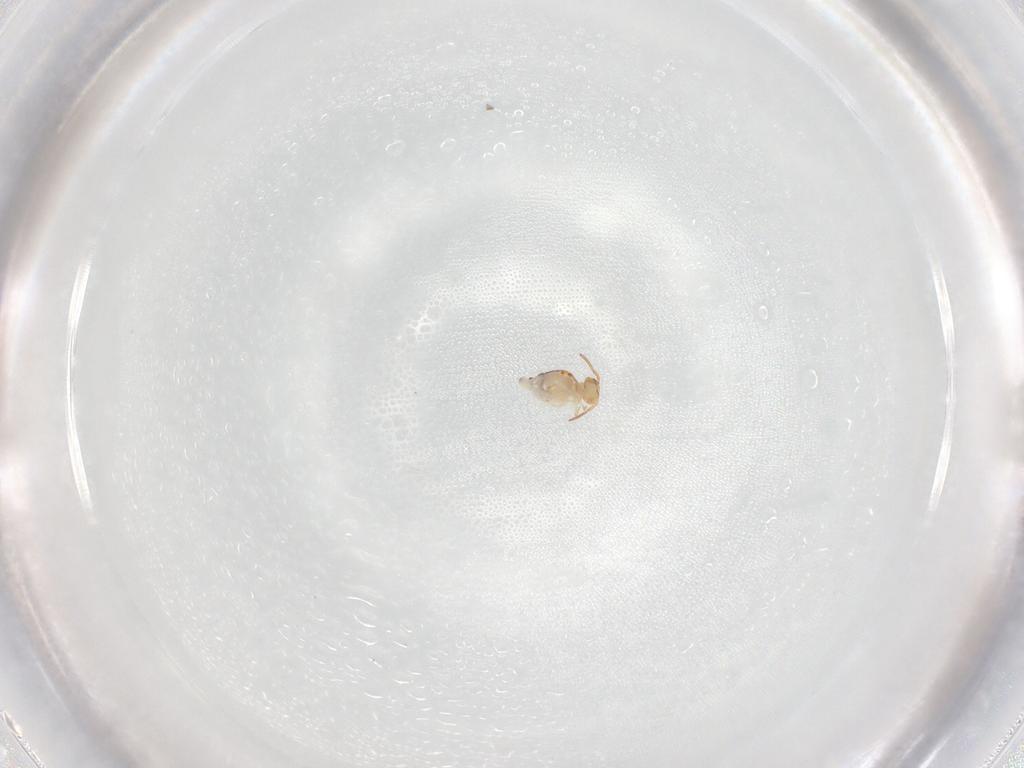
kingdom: Animalia
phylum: Arthropoda
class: Collembola
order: Symphypleona
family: Bourletiellidae
